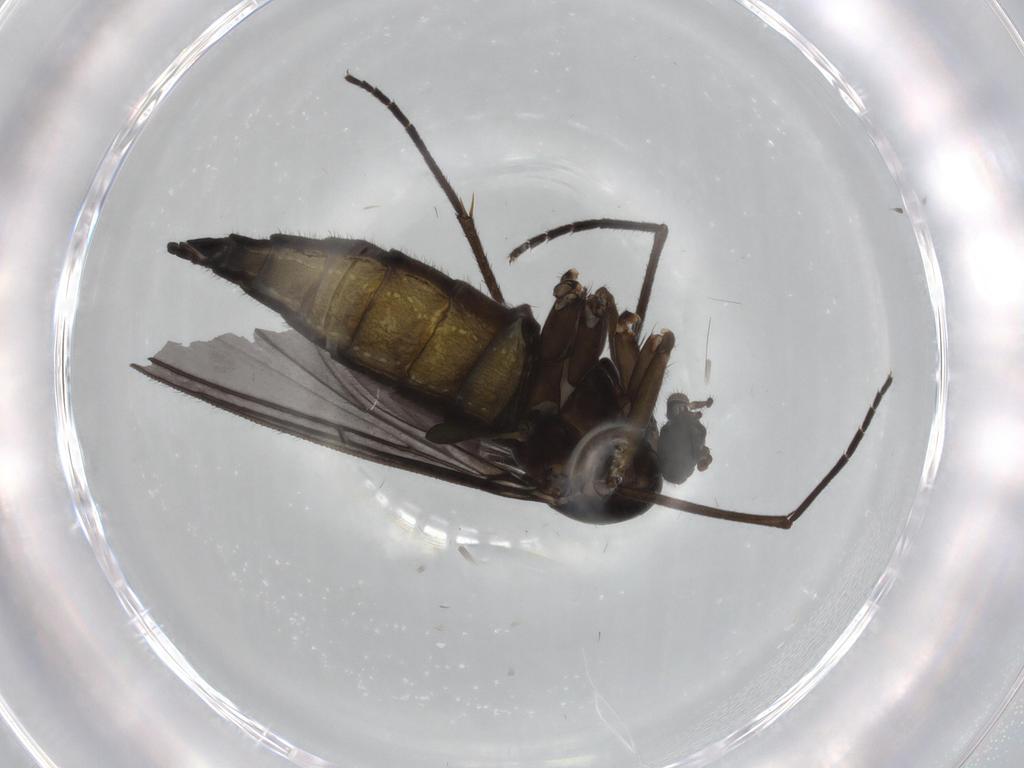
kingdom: Animalia
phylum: Arthropoda
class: Insecta
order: Diptera
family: Sciaridae
